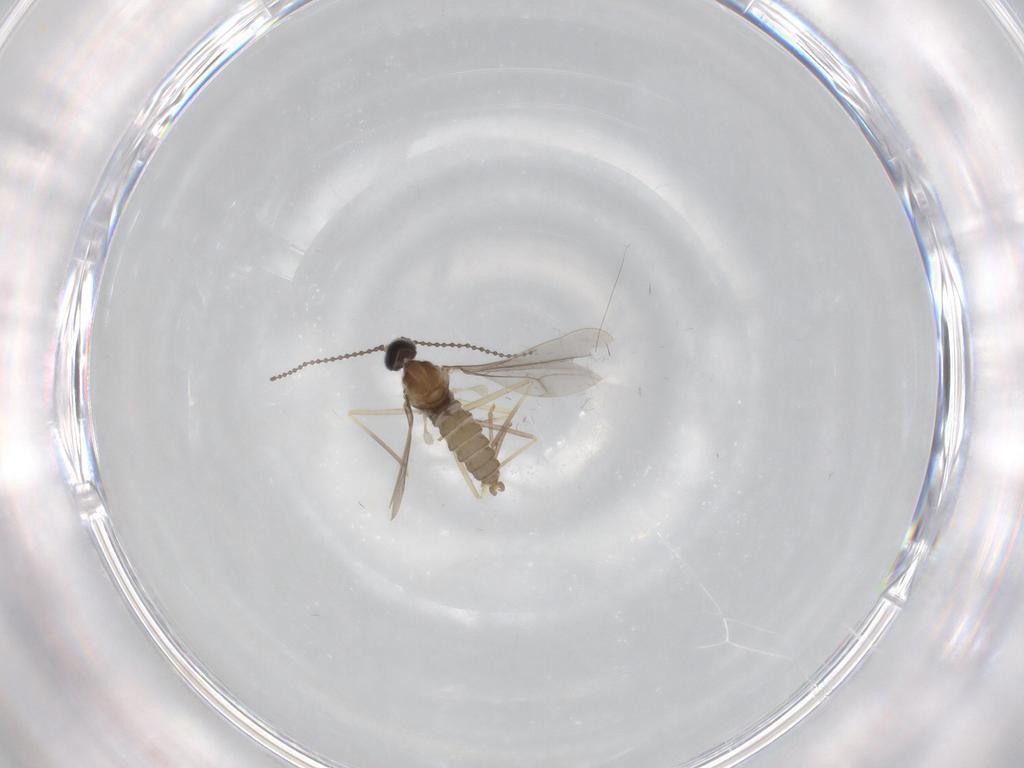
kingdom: Animalia
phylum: Arthropoda
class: Insecta
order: Diptera
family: Cecidomyiidae
